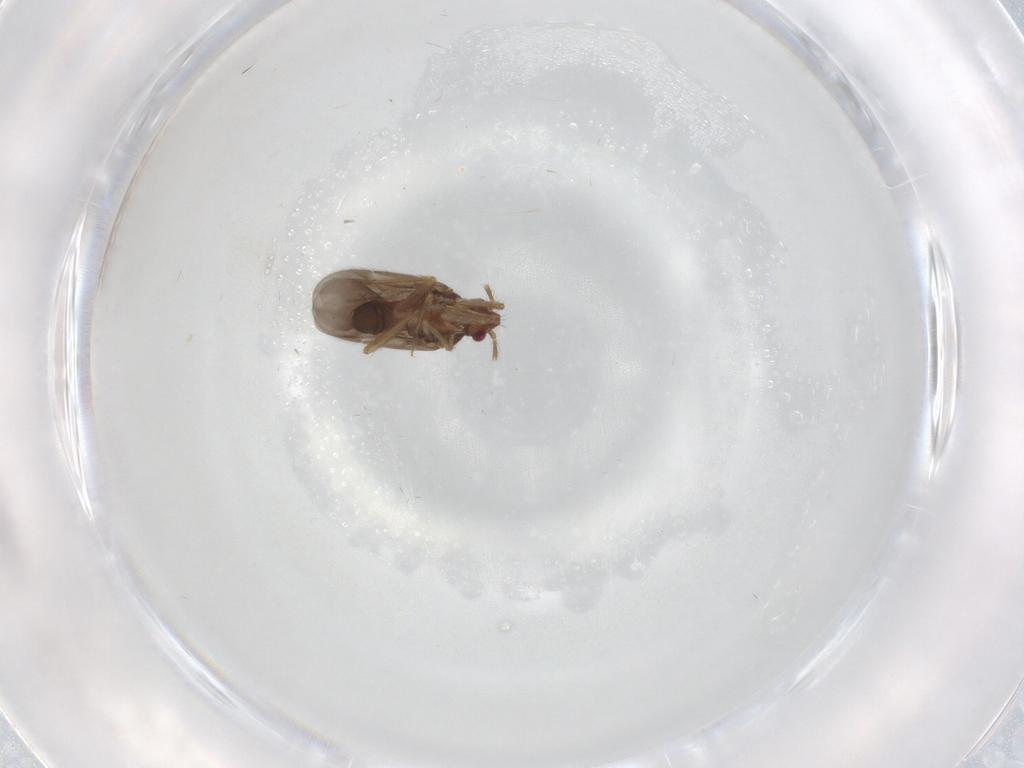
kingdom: Animalia
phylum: Arthropoda
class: Insecta
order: Hemiptera
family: Ceratocombidae
